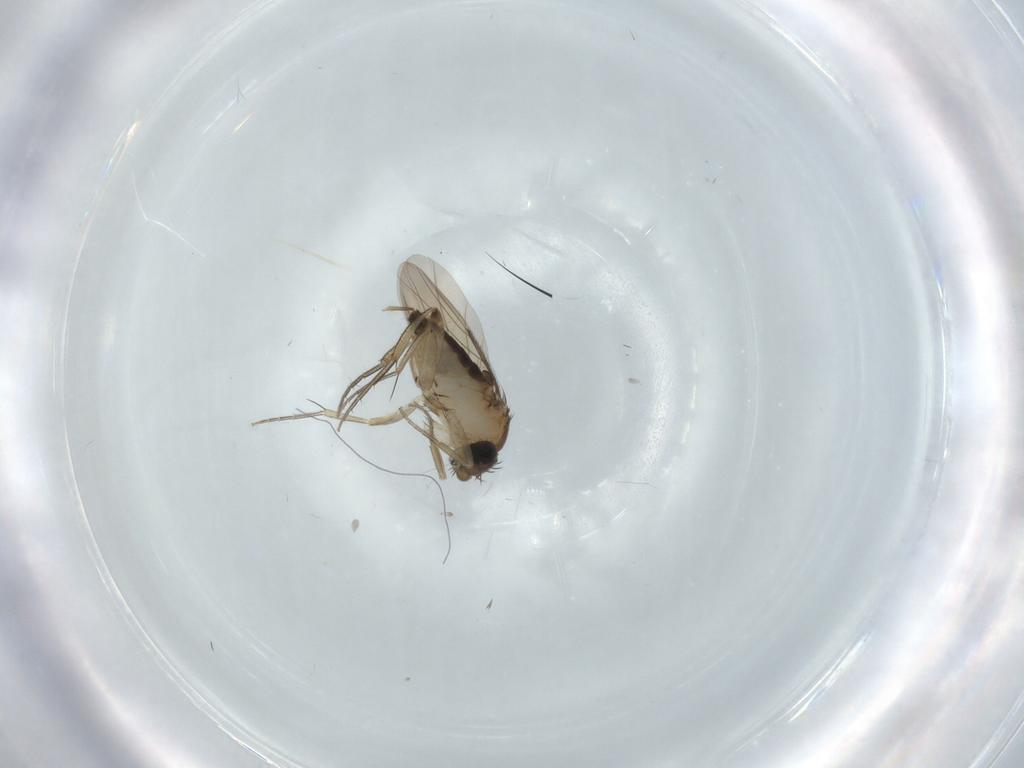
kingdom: Animalia
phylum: Arthropoda
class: Insecta
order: Diptera
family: Phoridae
